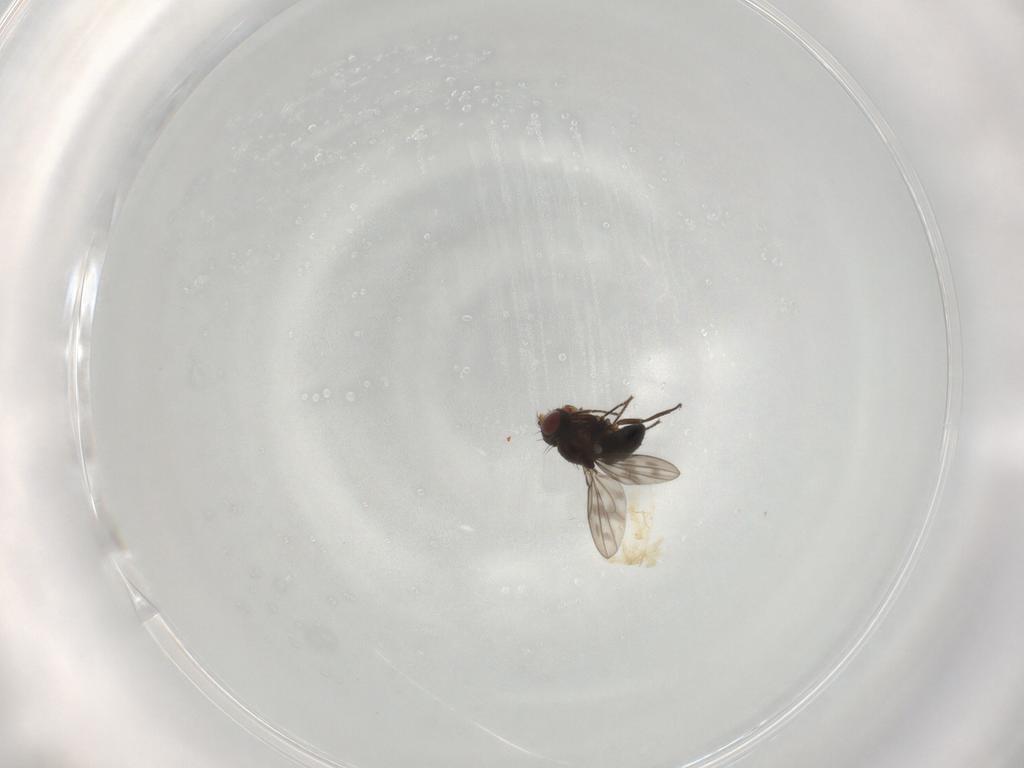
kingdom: Animalia
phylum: Arthropoda
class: Insecta
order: Diptera
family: Ephydridae
